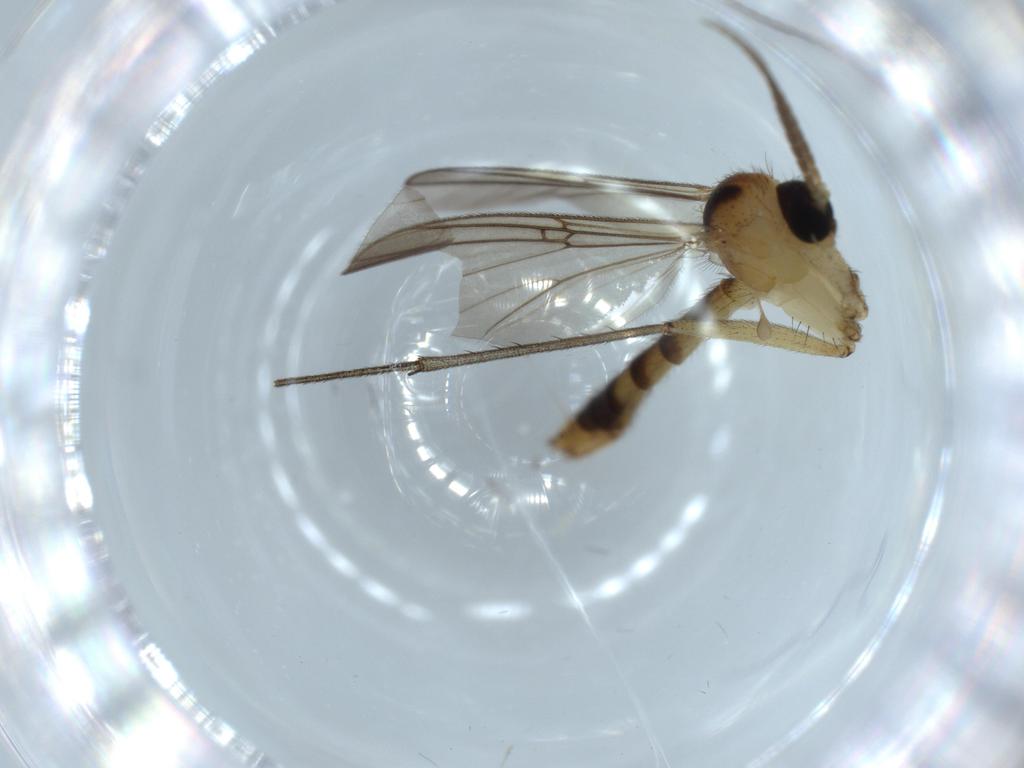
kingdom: Animalia
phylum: Arthropoda
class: Insecta
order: Diptera
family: Cecidomyiidae
